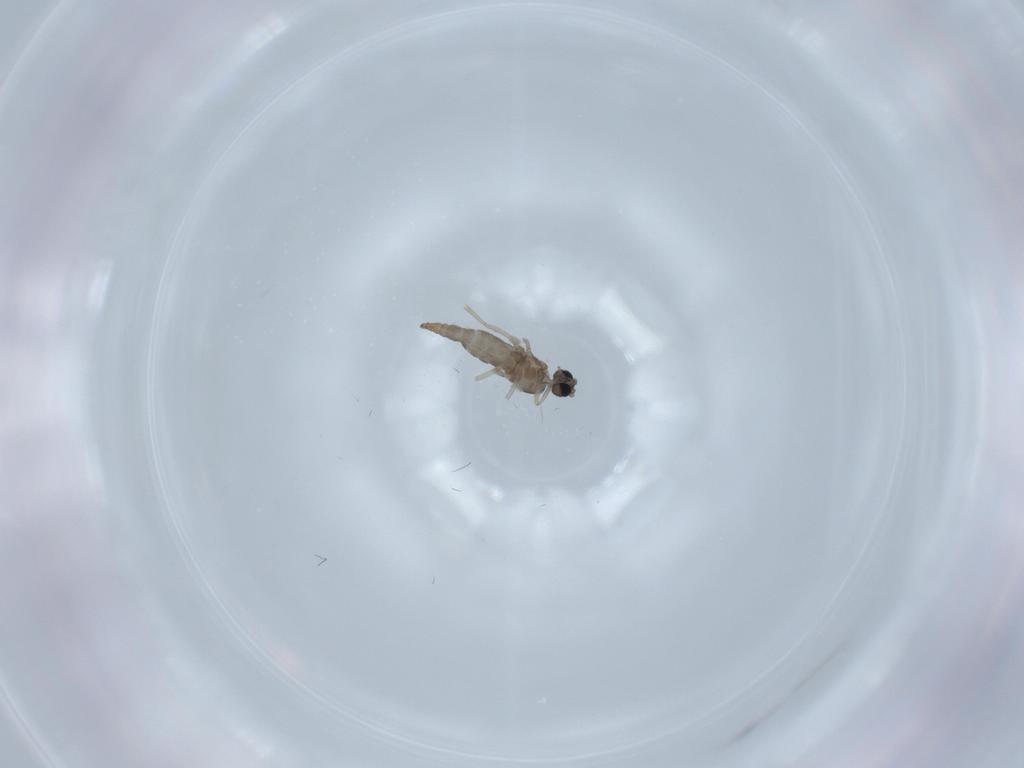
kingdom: Animalia
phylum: Arthropoda
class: Insecta
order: Diptera
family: Cecidomyiidae
